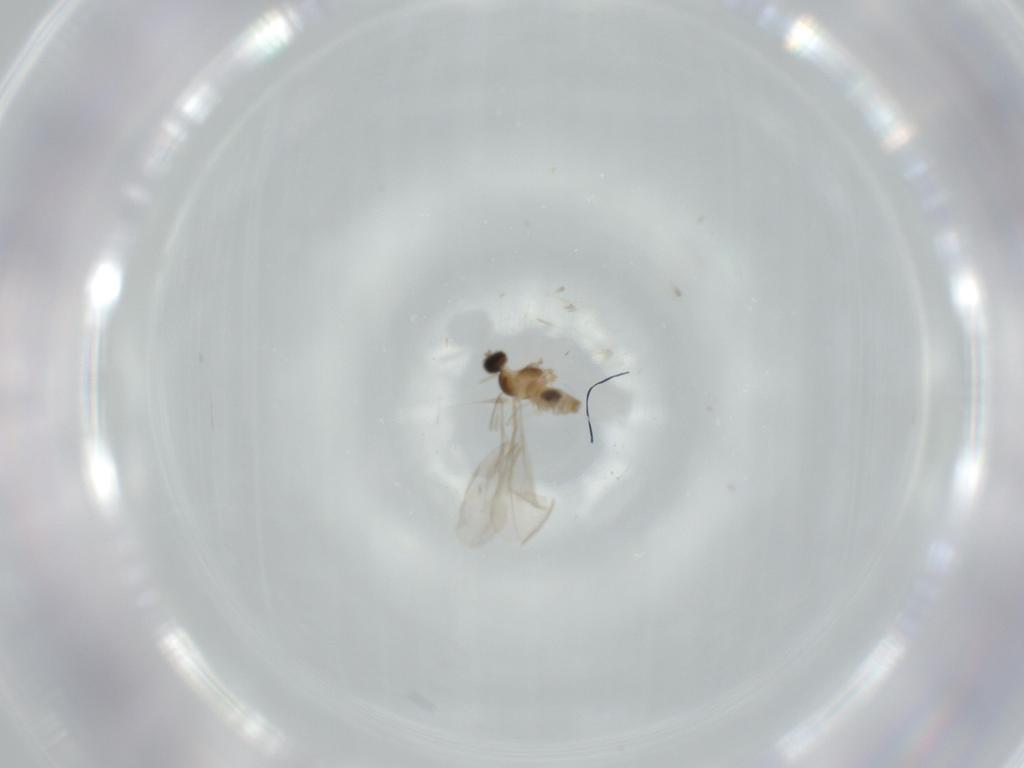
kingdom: Animalia
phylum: Arthropoda
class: Insecta
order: Diptera
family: Cecidomyiidae
